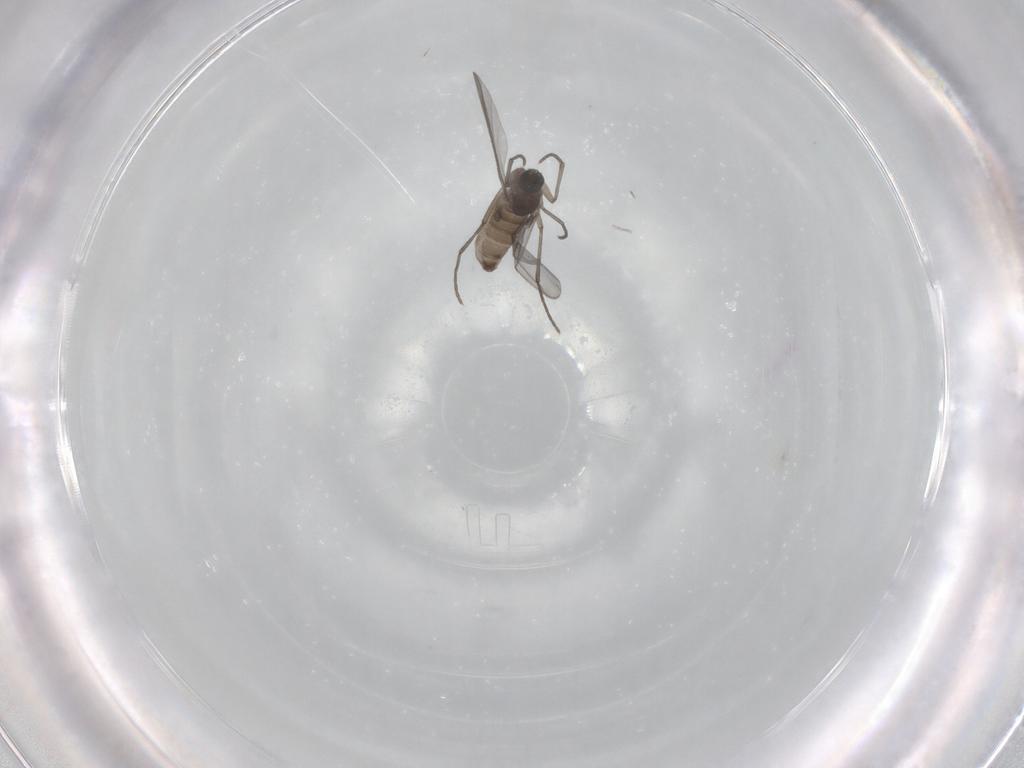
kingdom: Animalia
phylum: Arthropoda
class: Insecta
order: Diptera
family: Sciaridae
